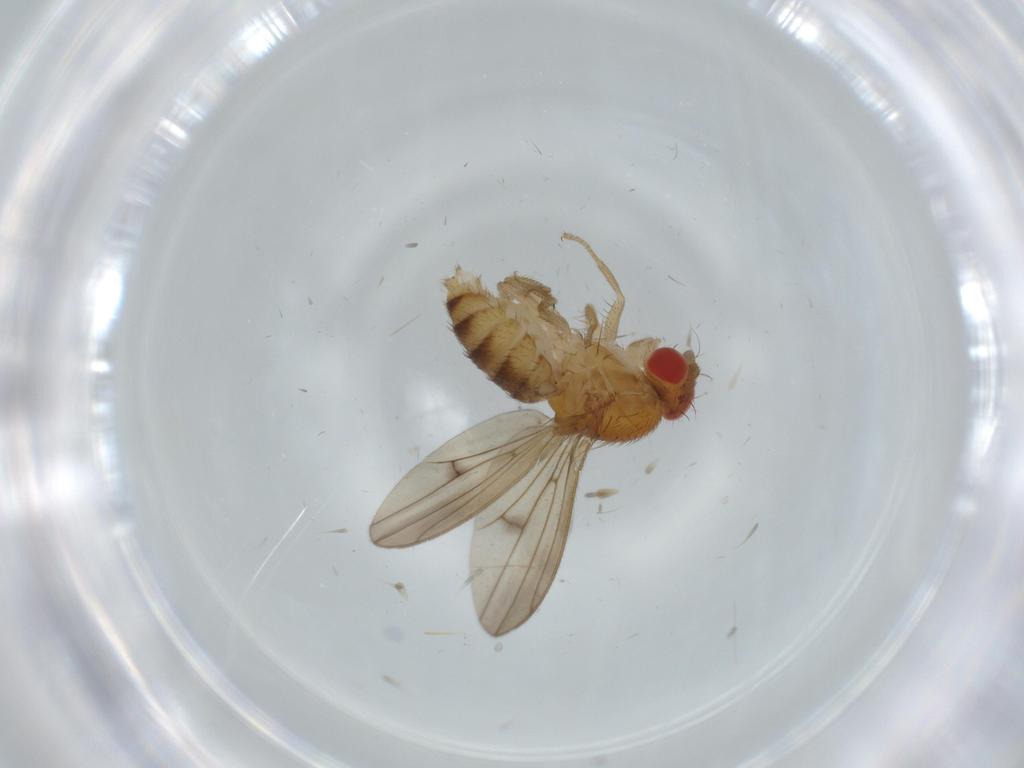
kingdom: Animalia
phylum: Arthropoda
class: Insecta
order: Diptera
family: Drosophilidae
